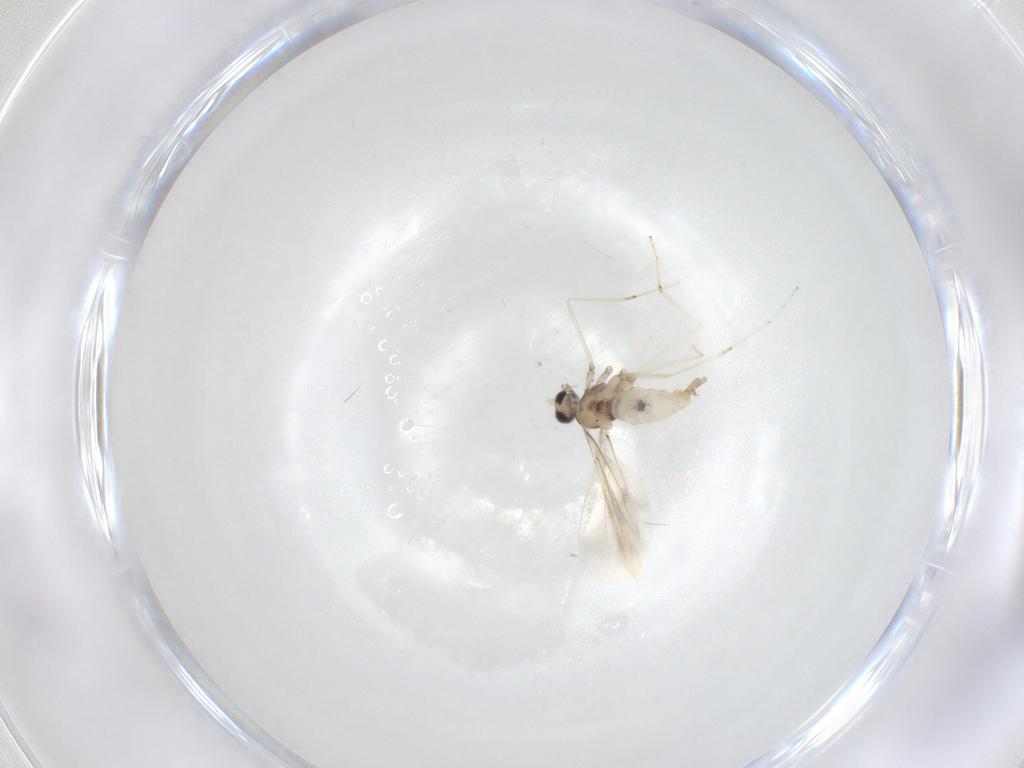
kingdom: Animalia
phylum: Arthropoda
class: Insecta
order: Diptera
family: Cecidomyiidae
